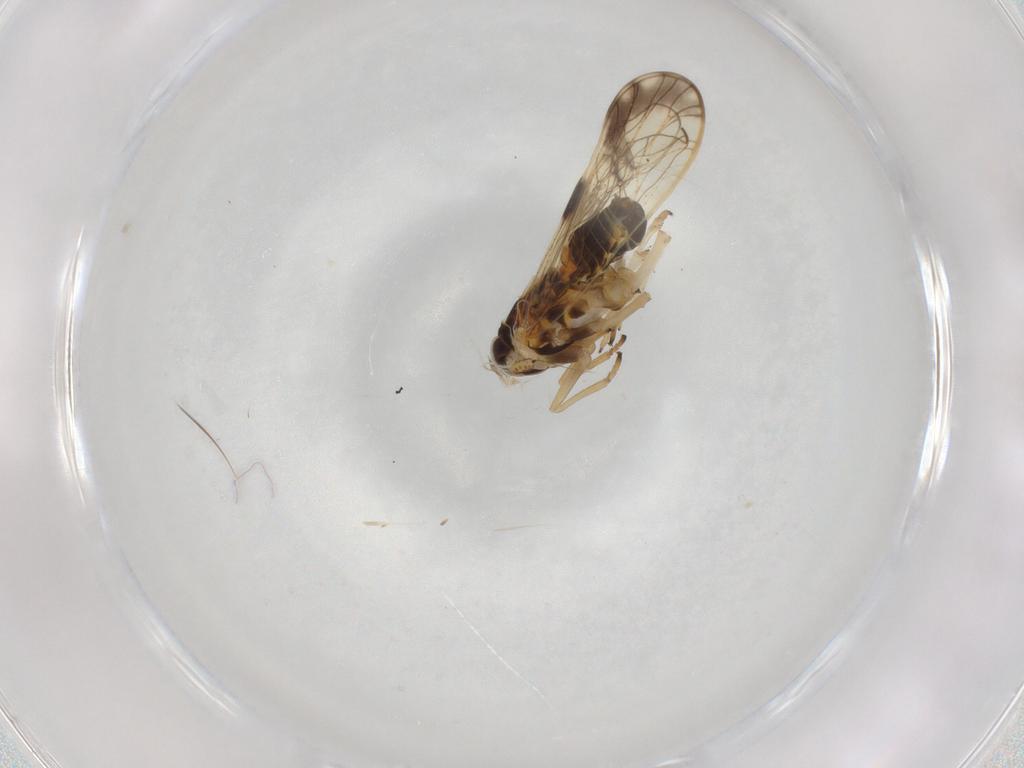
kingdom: Animalia
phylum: Arthropoda
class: Insecta
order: Hemiptera
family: Delphacidae
